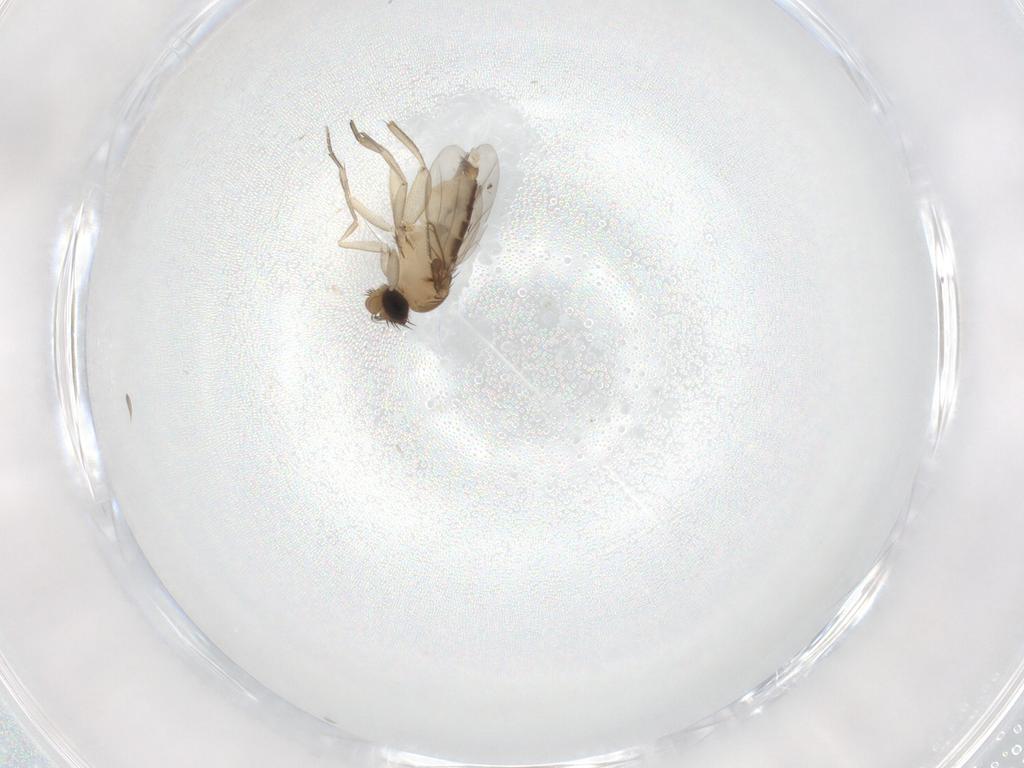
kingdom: Animalia
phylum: Arthropoda
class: Insecta
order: Diptera
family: Phoridae
